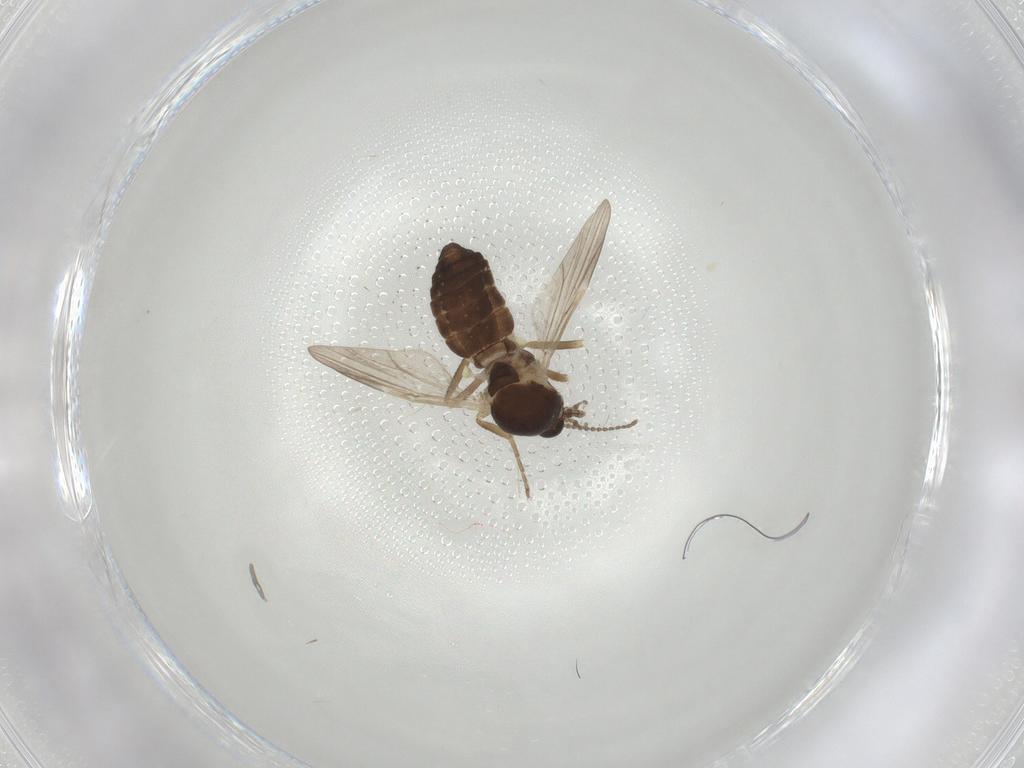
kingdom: Animalia
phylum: Arthropoda
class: Insecta
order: Diptera
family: Ceratopogonidae
